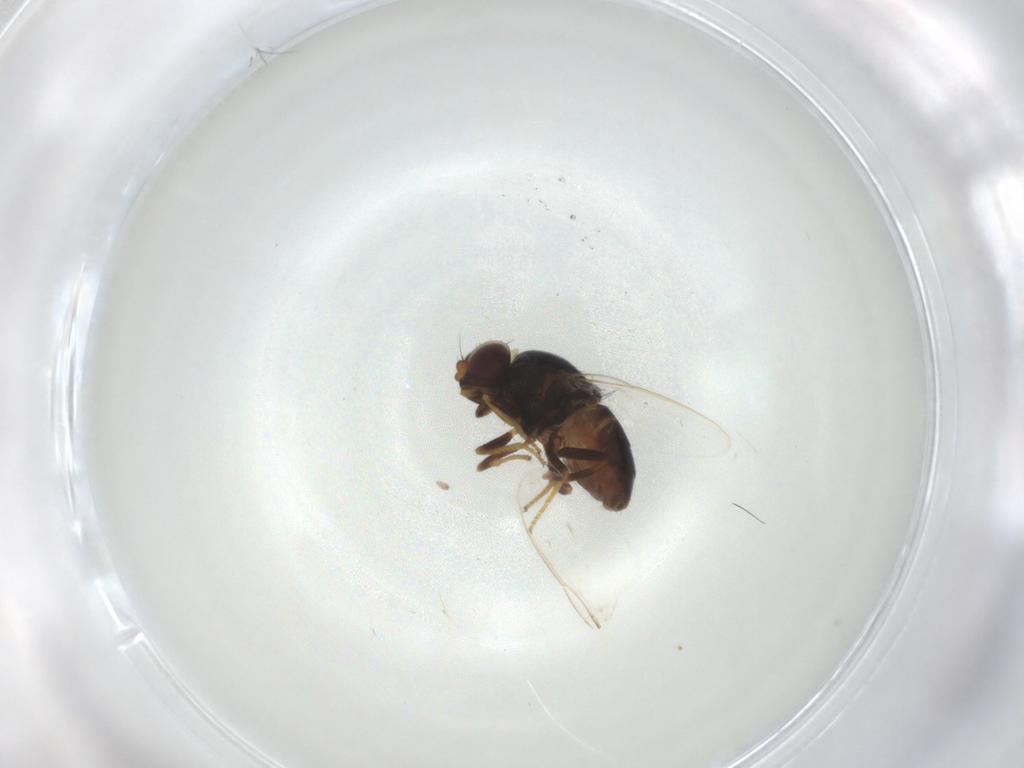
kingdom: Animalia
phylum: Arthropoda
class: Insecta
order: Diptera
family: Chloropidae
